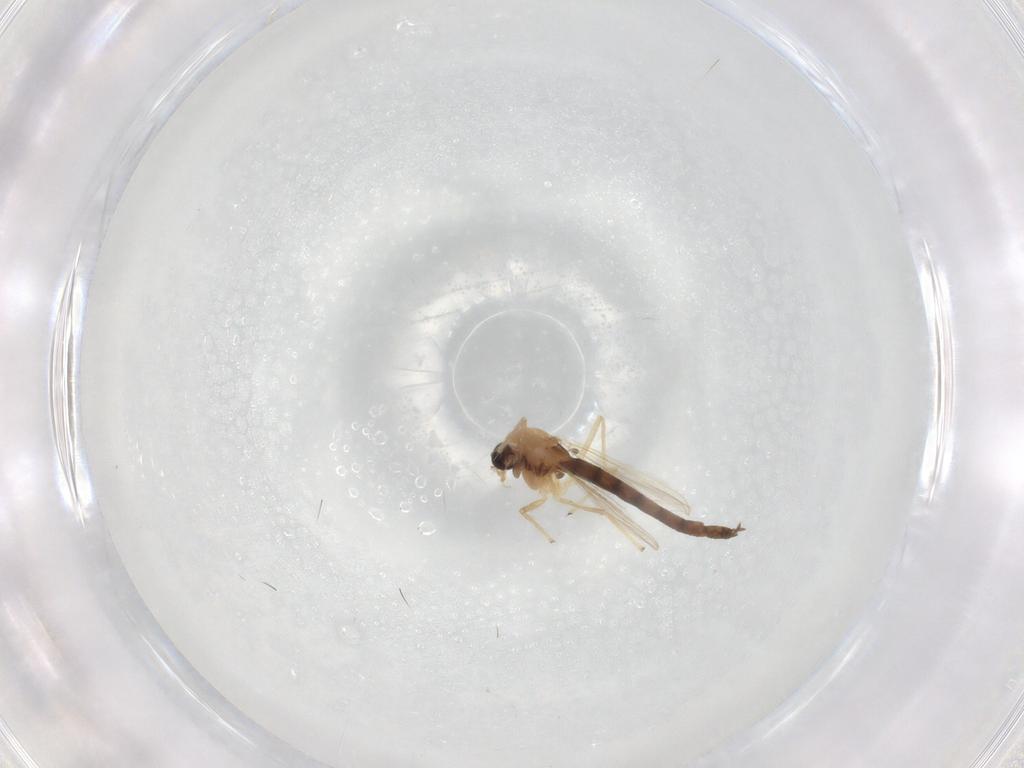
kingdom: Animalia
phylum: Arthropoda
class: Insecta
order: Diptera
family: Chironomidae
